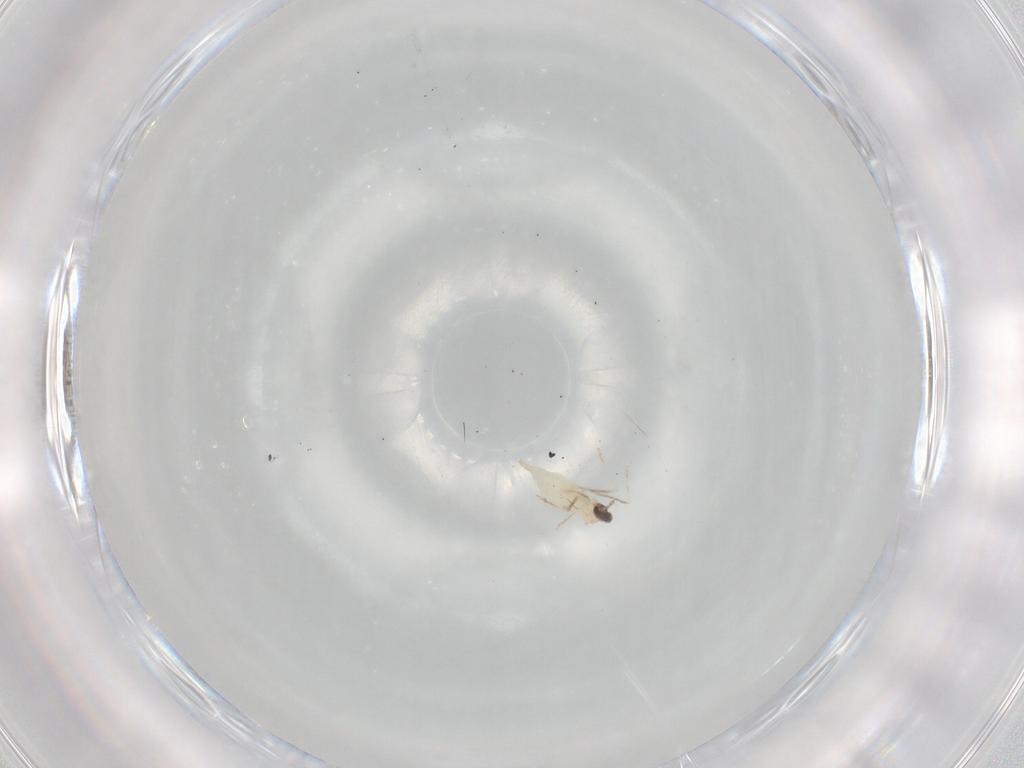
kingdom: Animalia
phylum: Arthropoda
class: Insecta
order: Diptera
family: Cecidomyiidae
